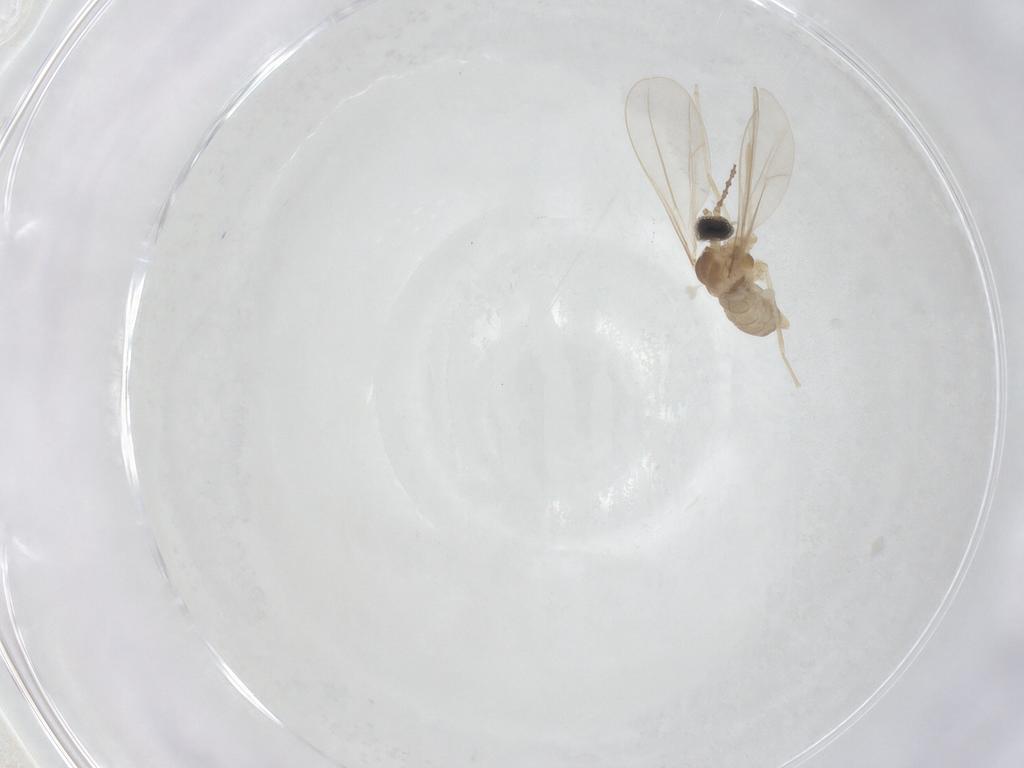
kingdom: Animalia
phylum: Arthropoda
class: Insecta
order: Diptera
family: Cecidomyiidae
